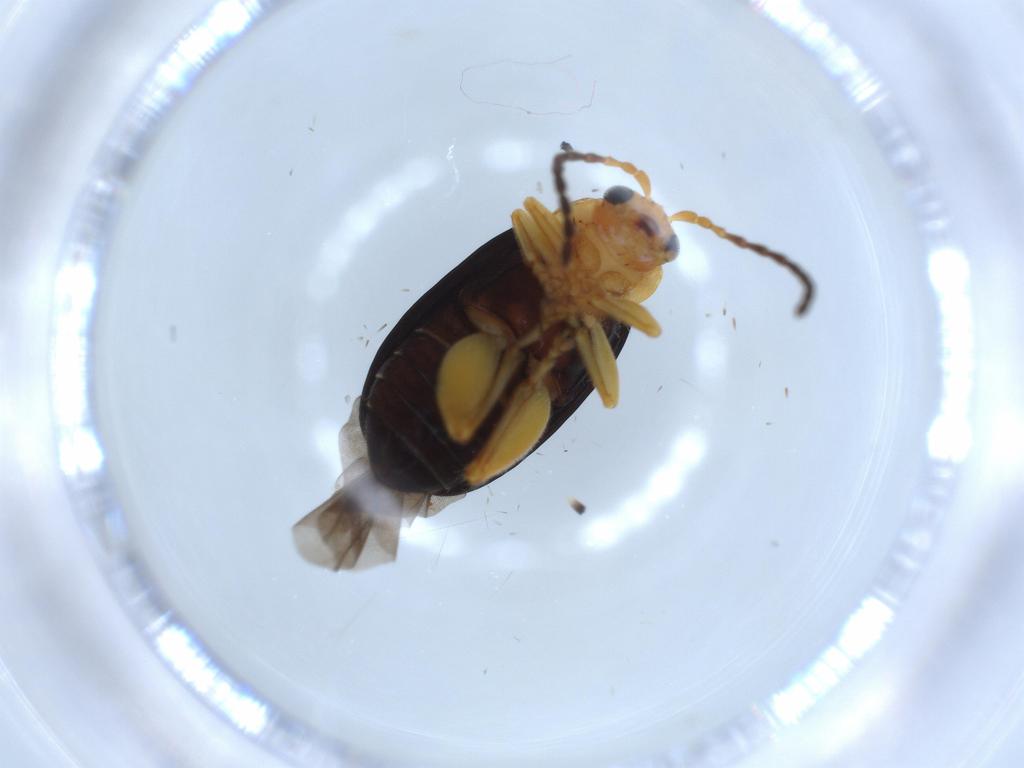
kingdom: Animalia
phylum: Arthropoda
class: Insecta
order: Coleoptera
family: Chrysomelidae
